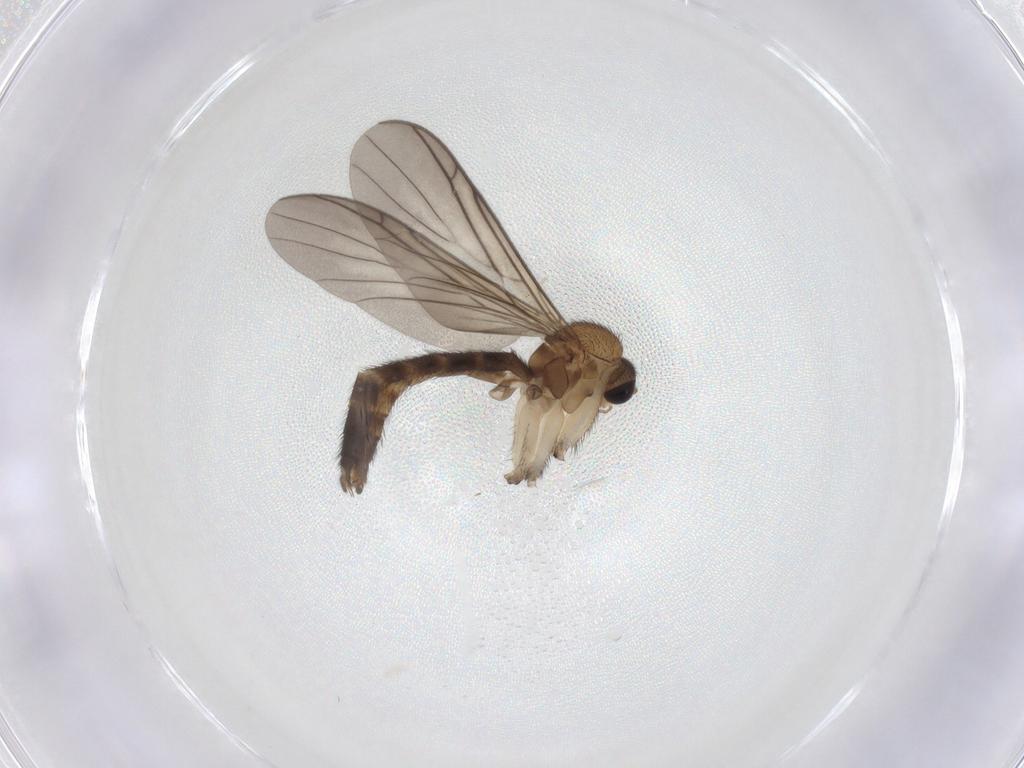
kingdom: Animalia
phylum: Arthropoda
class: Insecta
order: Diptera
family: Keroplatidae
